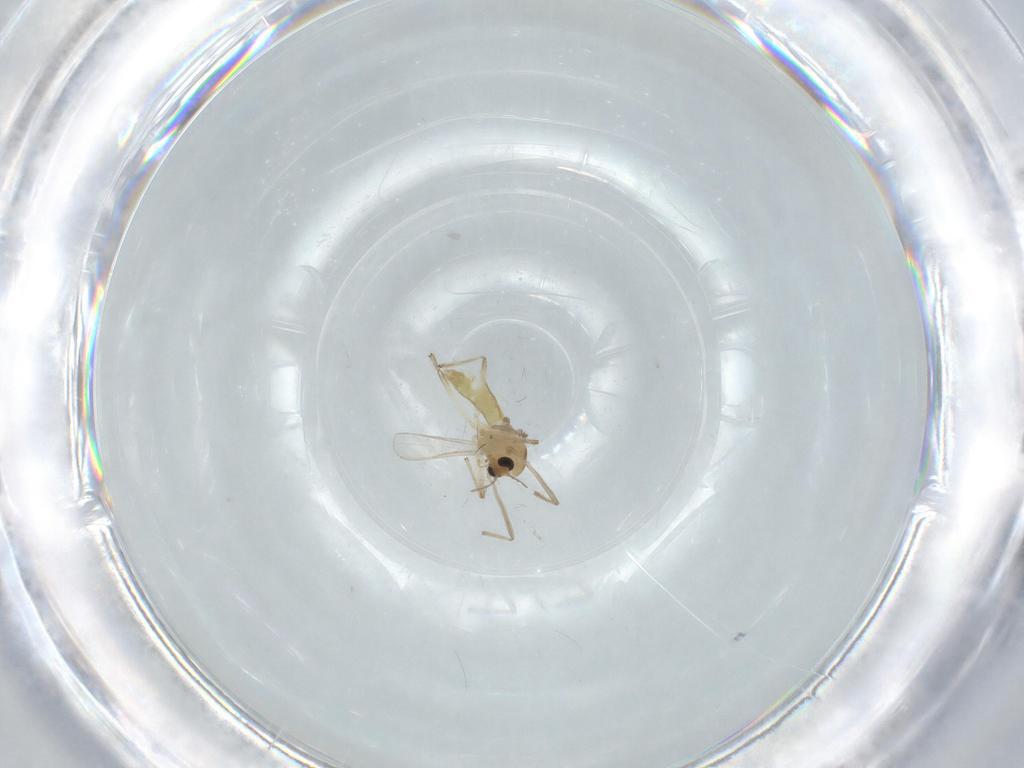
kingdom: Animalia
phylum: Arthropoda
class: Insecta
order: Diptera
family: Chironomidae
